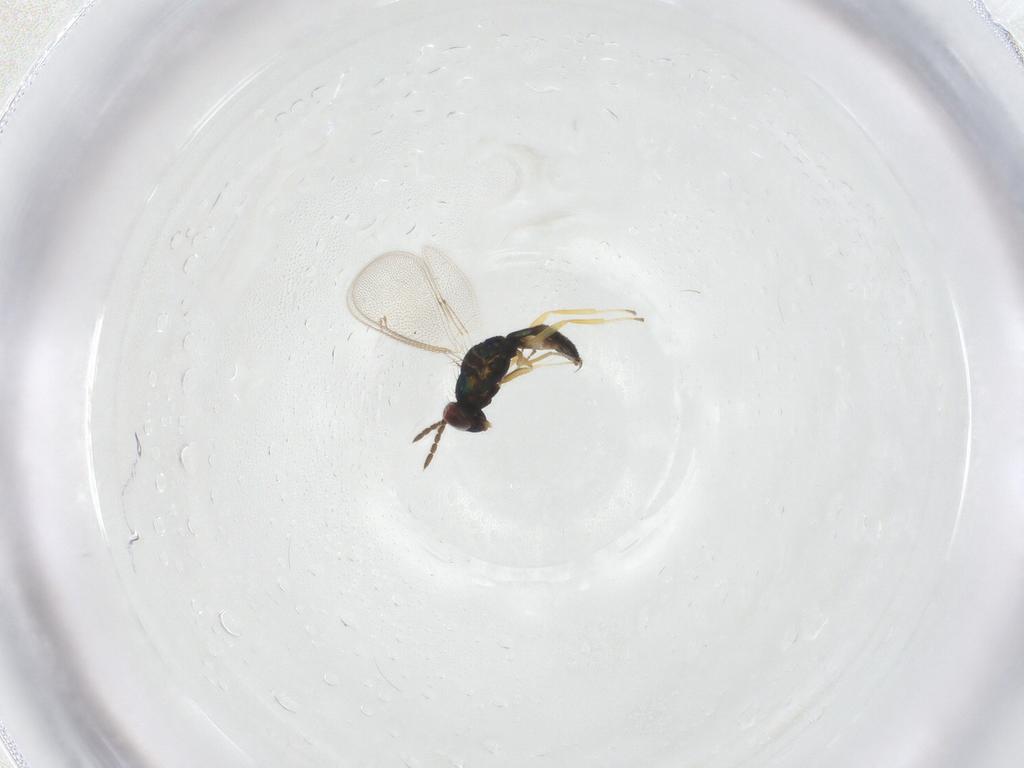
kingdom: Animalia
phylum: Arthropoda
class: Insecta
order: Hymenoptera
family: Eulophidae
